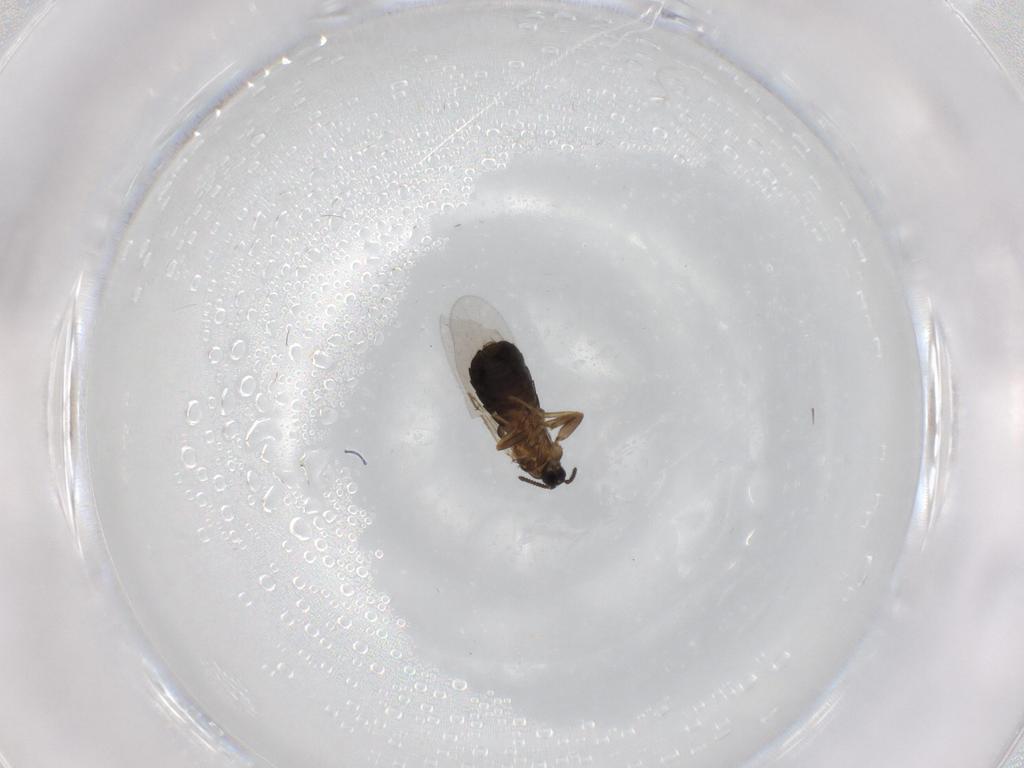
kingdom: Animalia
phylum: Arthropoda
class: Insecta
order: Diptera
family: Scatopsidae
